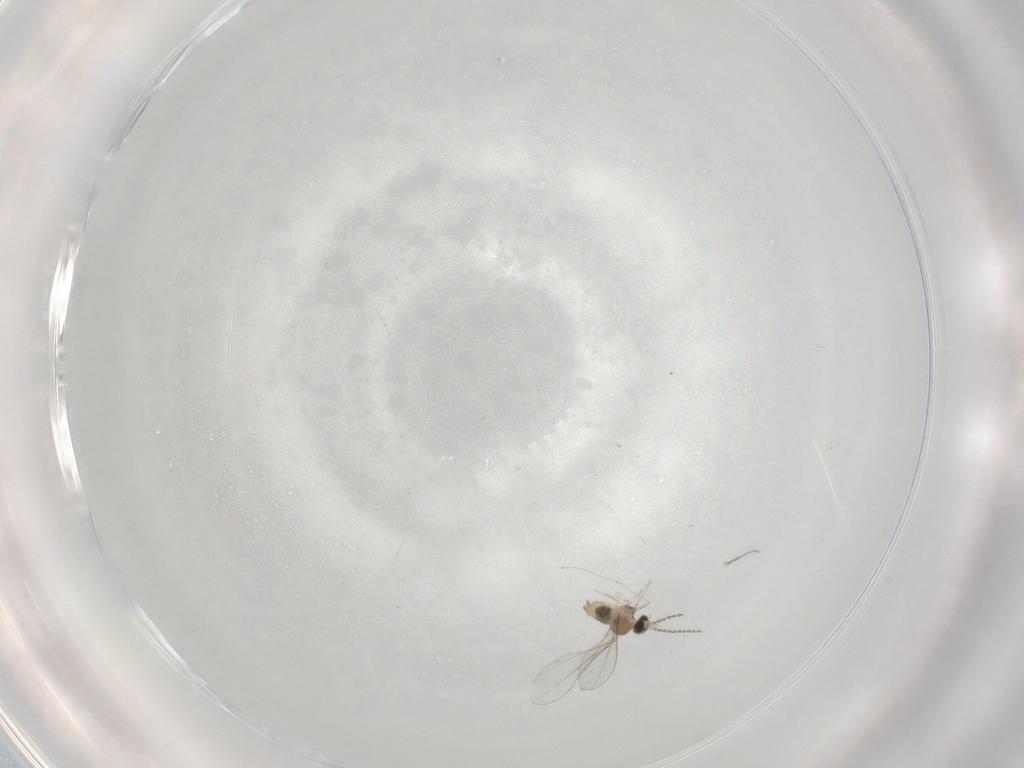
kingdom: Animalia
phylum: Arthropoda
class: Insecta
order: Diptera
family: Cecidomyiidae
